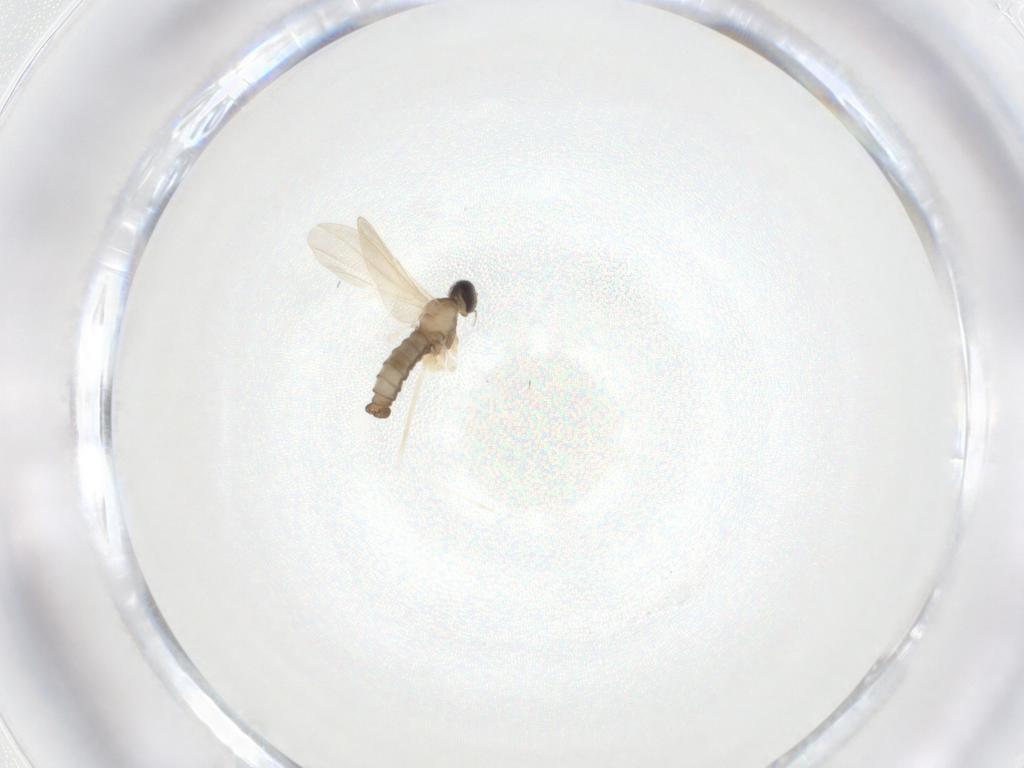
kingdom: Animalia
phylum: Arthropoda
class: Insecta
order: Diptera
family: Cecidomyiidae
